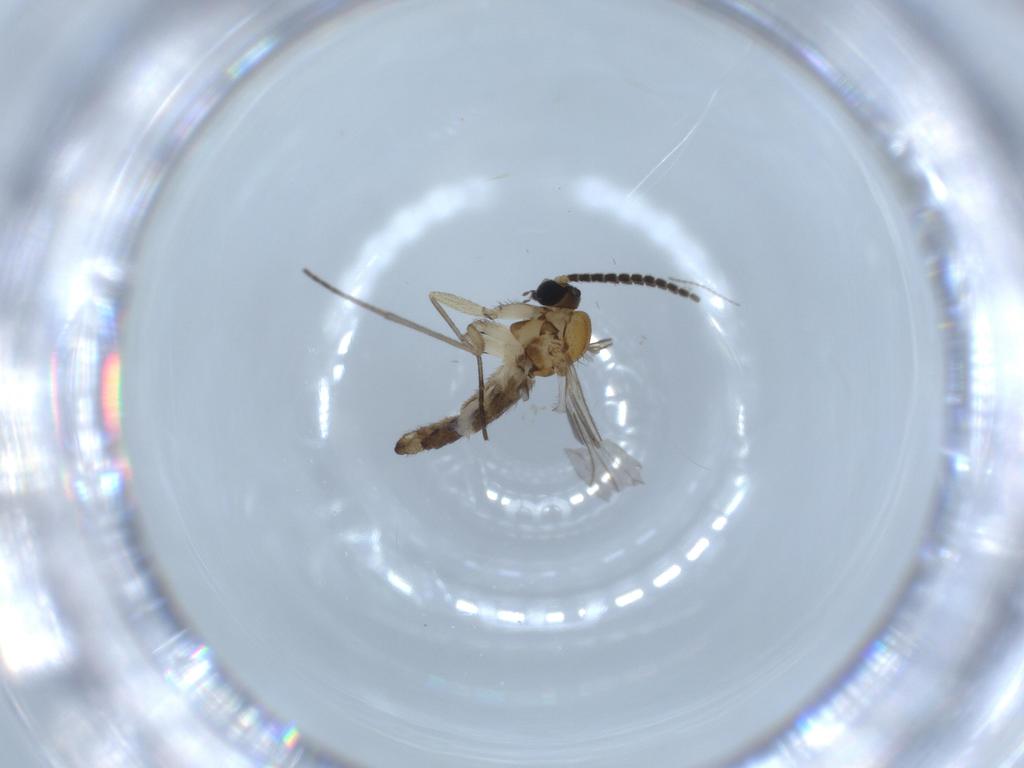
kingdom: Animalia
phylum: Arthropoda
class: Insecta
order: Diptera
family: Sciaridae
